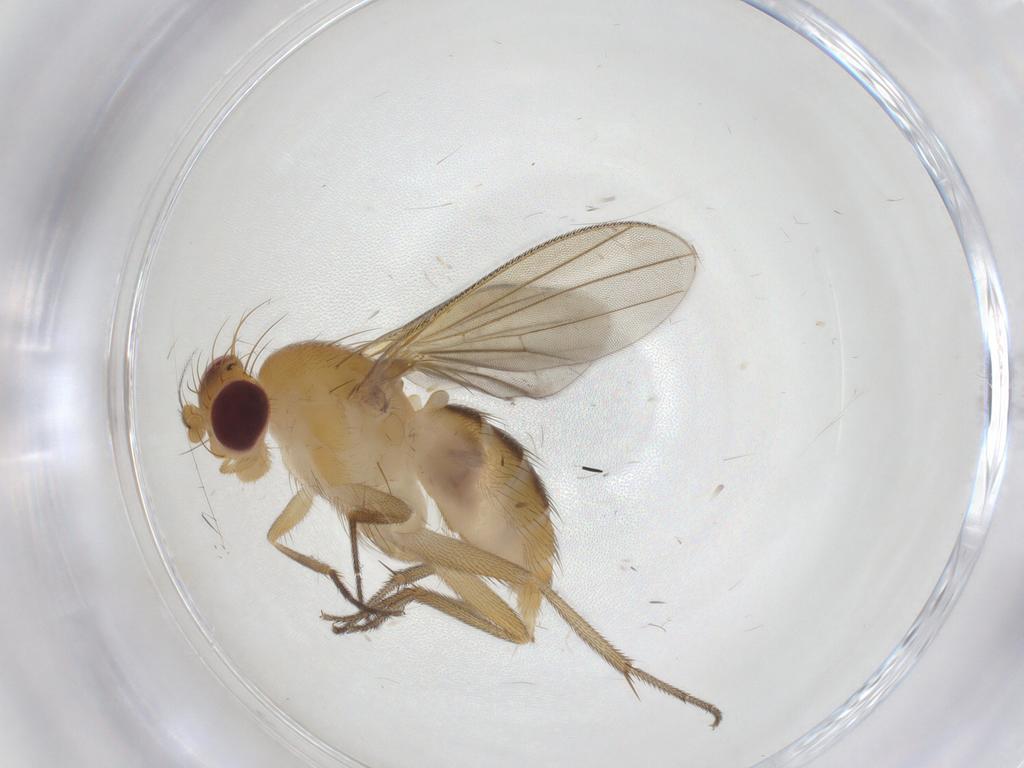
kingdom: Animalia
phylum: Arthropoda
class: Insecta
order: Diptera
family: Clusiidae
